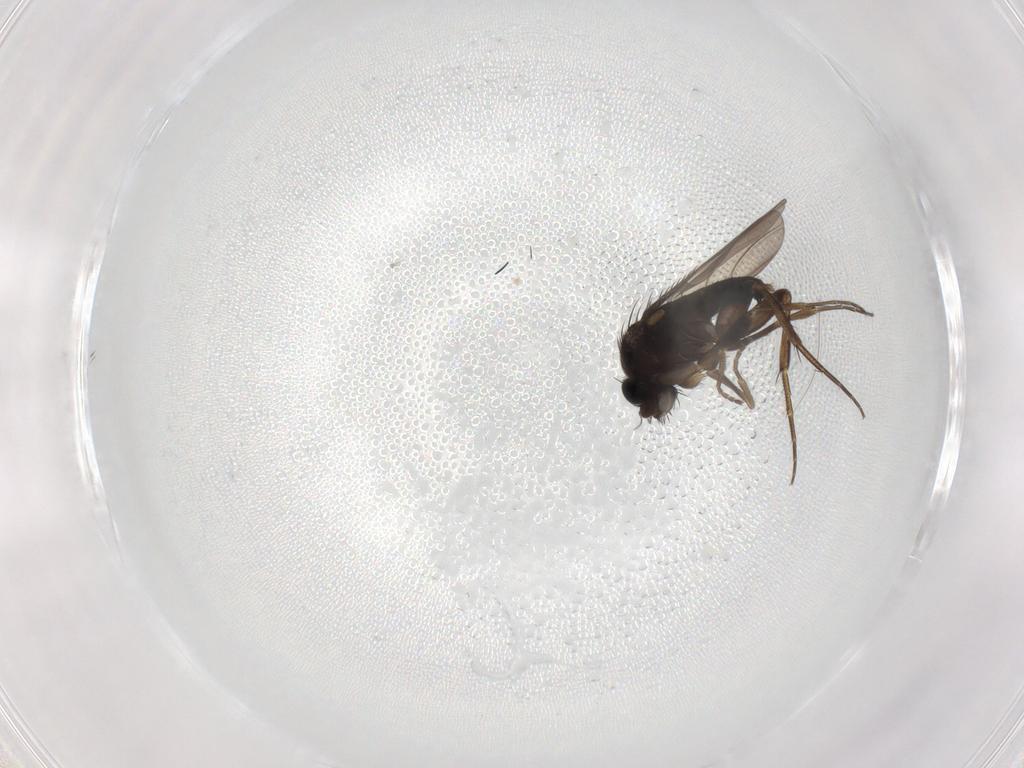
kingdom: Animalia
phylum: Arthropoda
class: Insecta
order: Diptera
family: Phoridae
